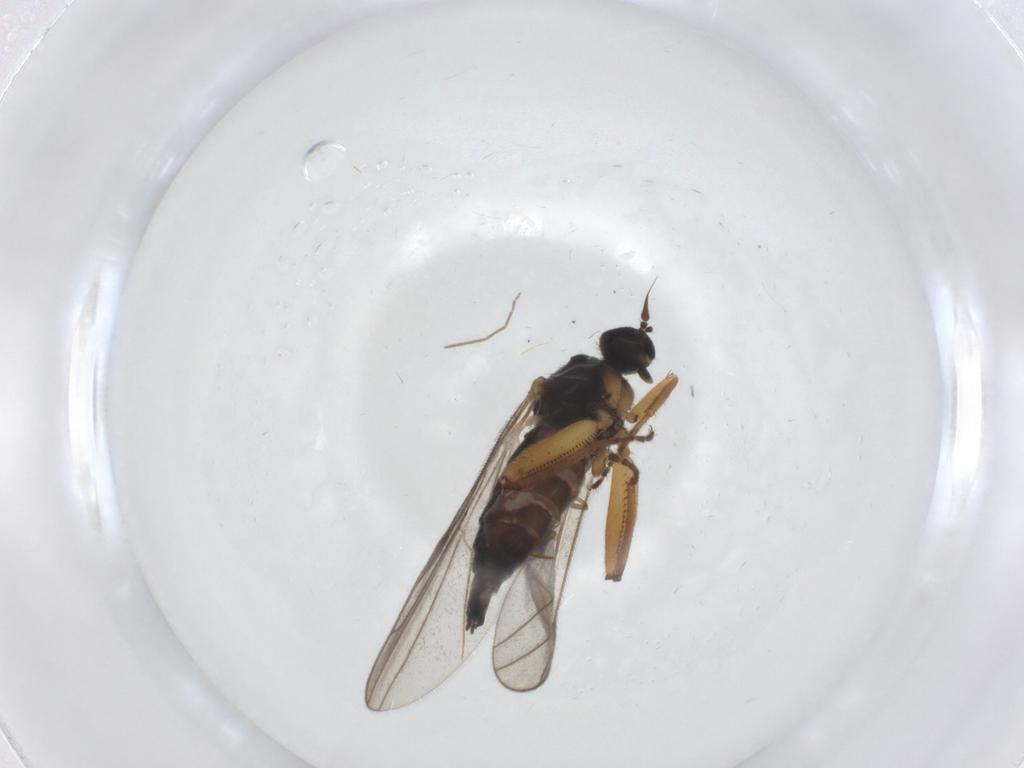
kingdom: Animalia
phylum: Arthropoda
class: Insecta
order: Diptera
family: Hybotidae
